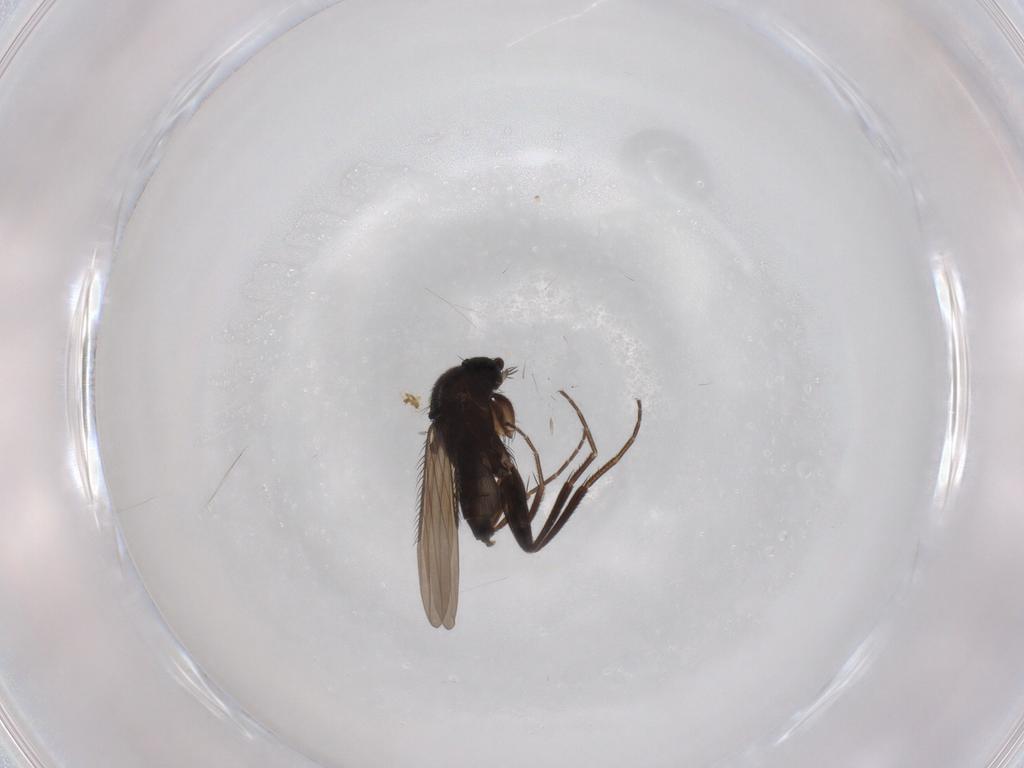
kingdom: Animalia
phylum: Arthropoda
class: Insecta
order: Diptera
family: Phoridae
